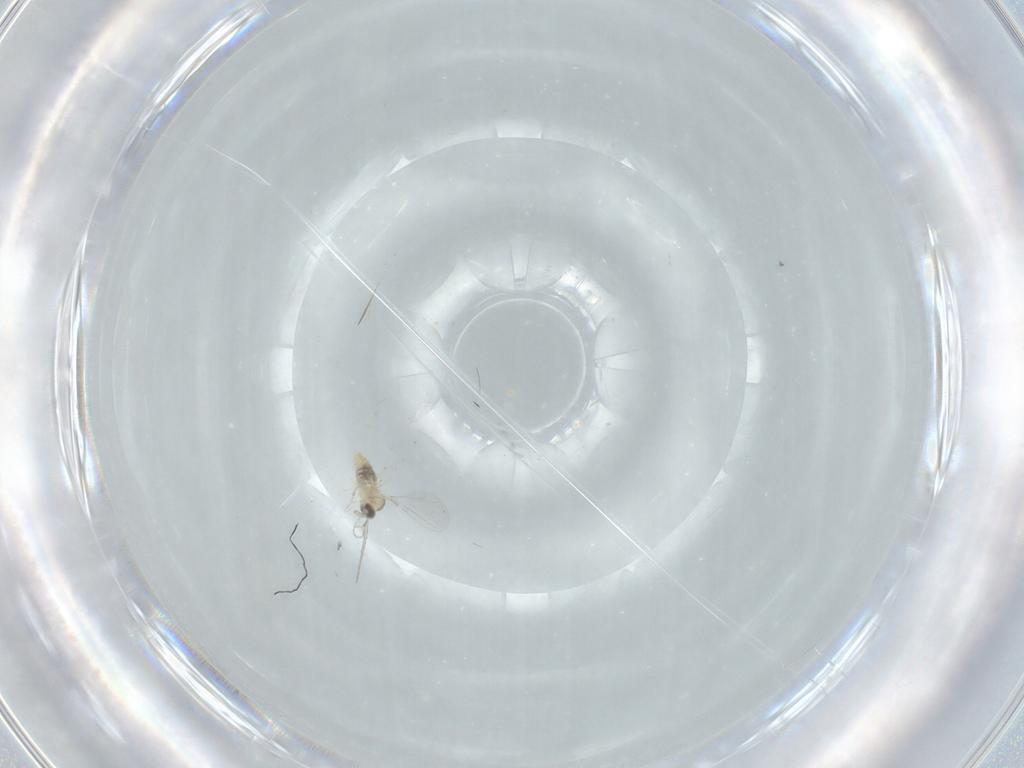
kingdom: Animalia
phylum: Arthropoda
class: Insecta
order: Diptera
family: Cecidomyiidae
